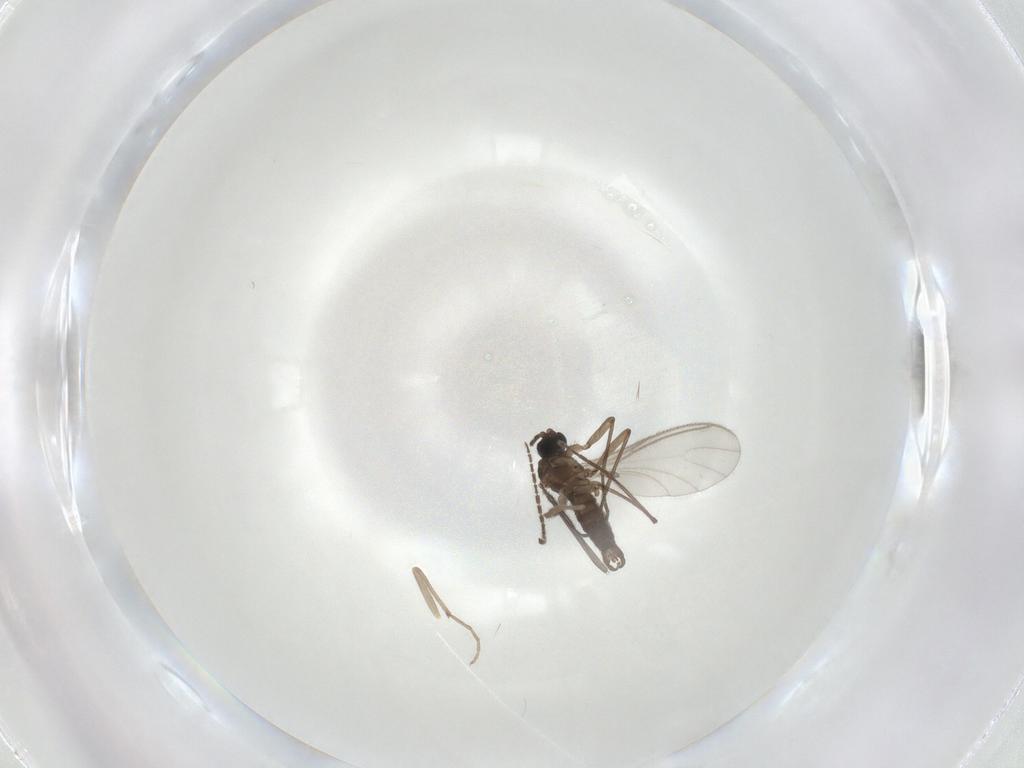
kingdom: Animalia
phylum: Arthropoda
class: Insecta
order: Diptera
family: Sciaridae
